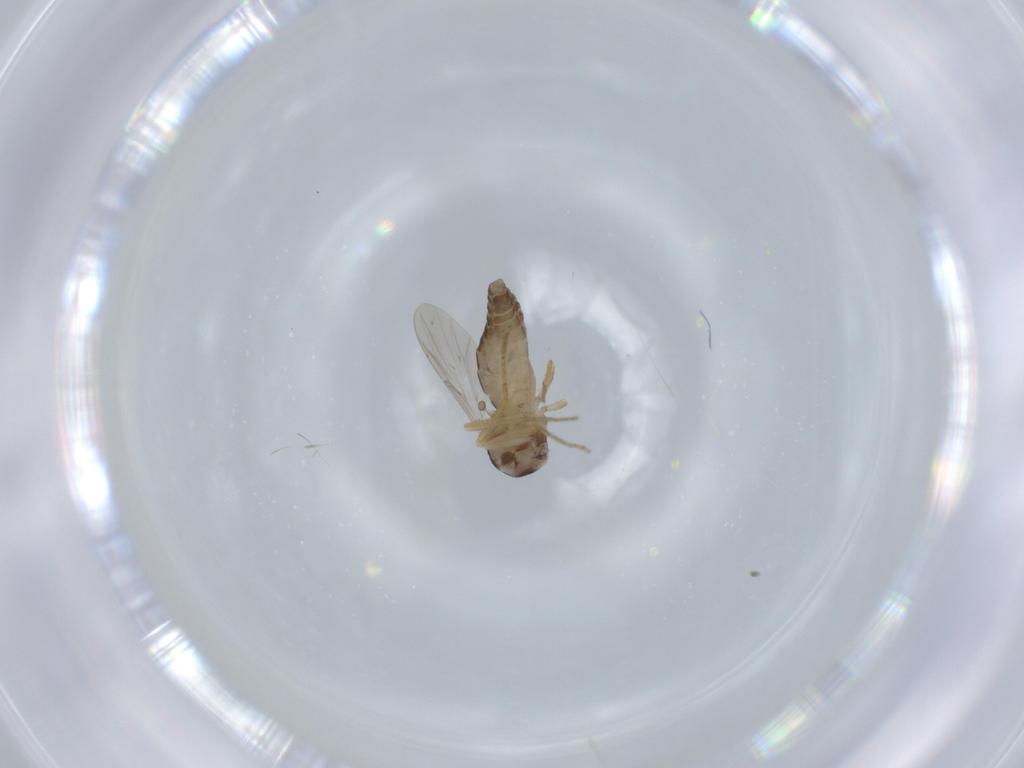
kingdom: Animalia
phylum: Arthropoda
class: Insecta
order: Diptera
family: Ceratopogonidae
